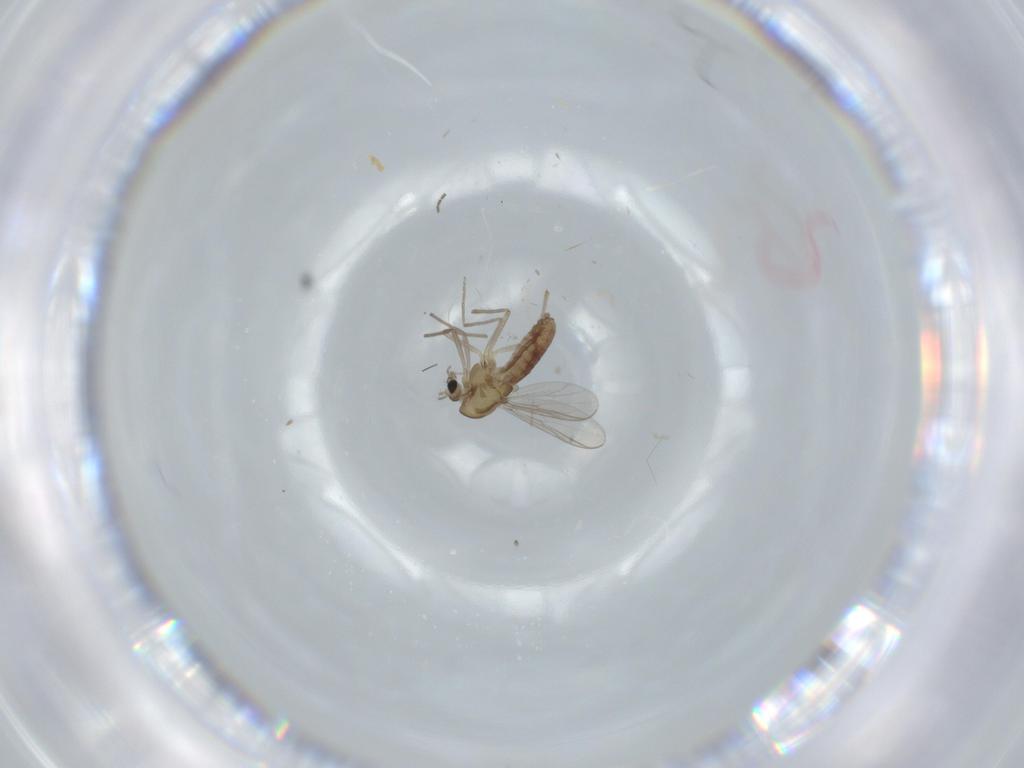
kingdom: Animalia
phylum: Arthropoda
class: Insecta
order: Diptera
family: Chironomidae
